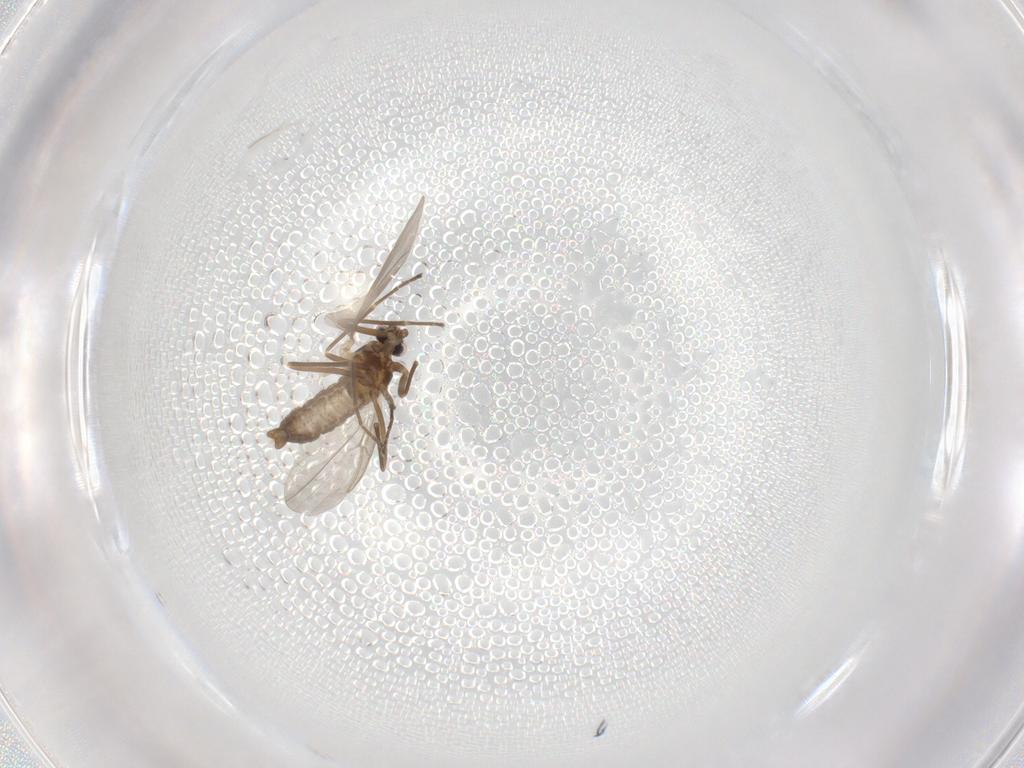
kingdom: Animalia
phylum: Arthropoda
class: Insecta
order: Diptera
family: Cecidomyiidae
